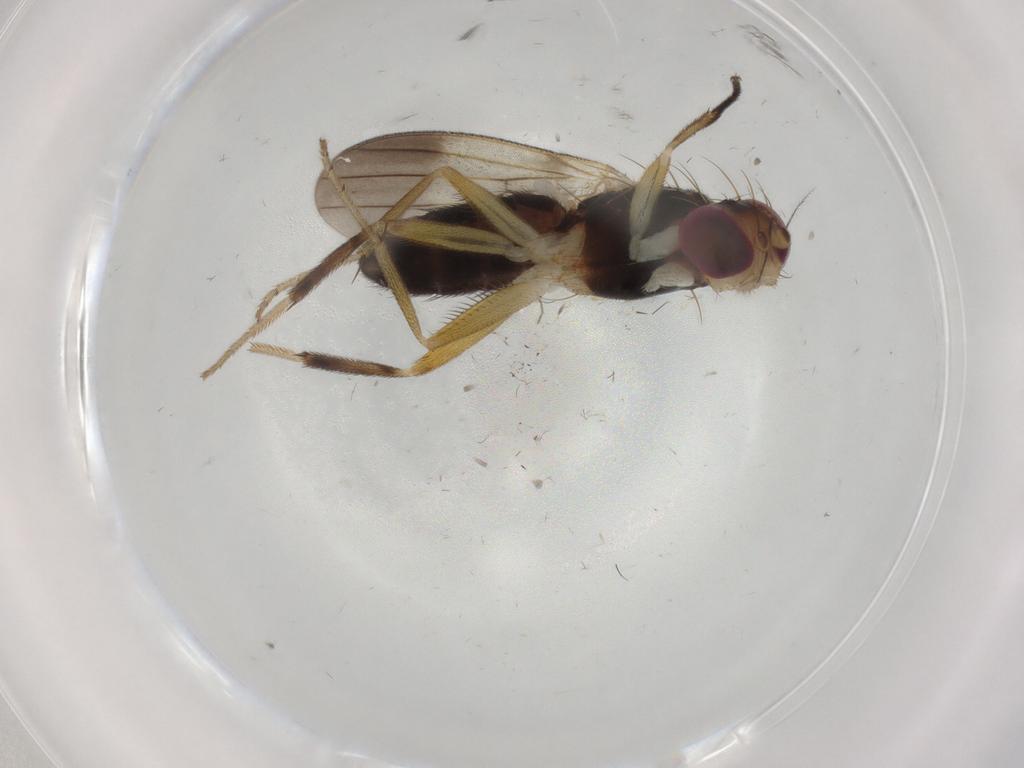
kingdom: Animalia
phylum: Arthropoda
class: Insecta
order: Diptera
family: Clusiidae
